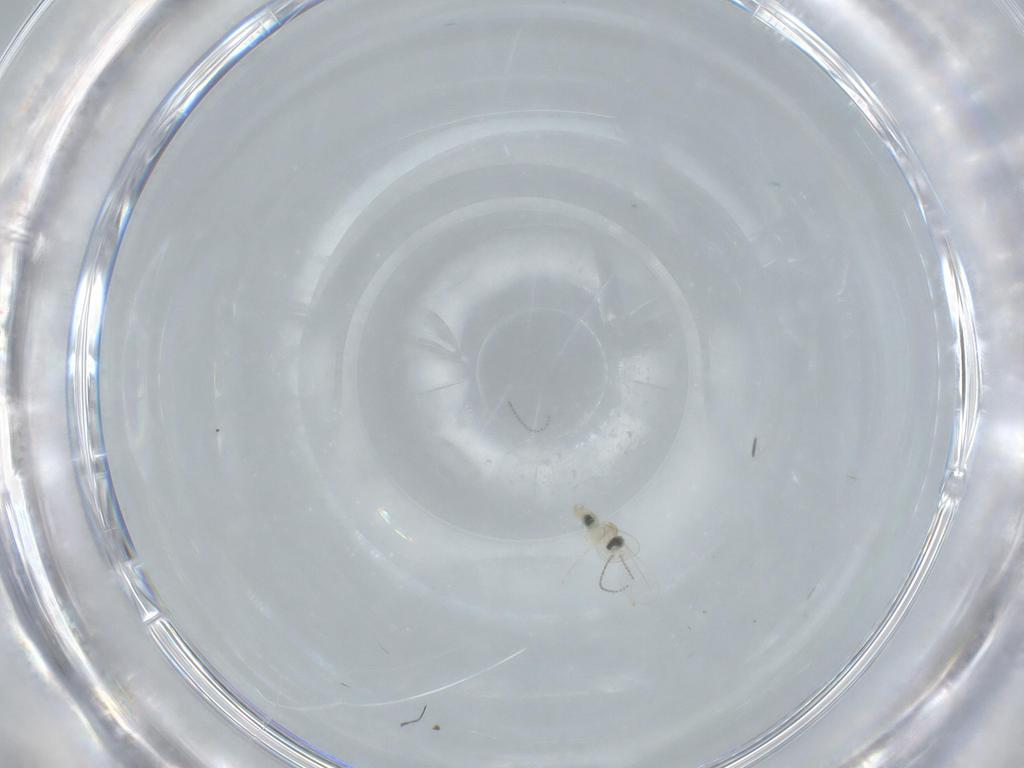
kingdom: Animalia
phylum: Arthropoda
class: Insecta
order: Diptera
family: Cecidomyiidae
